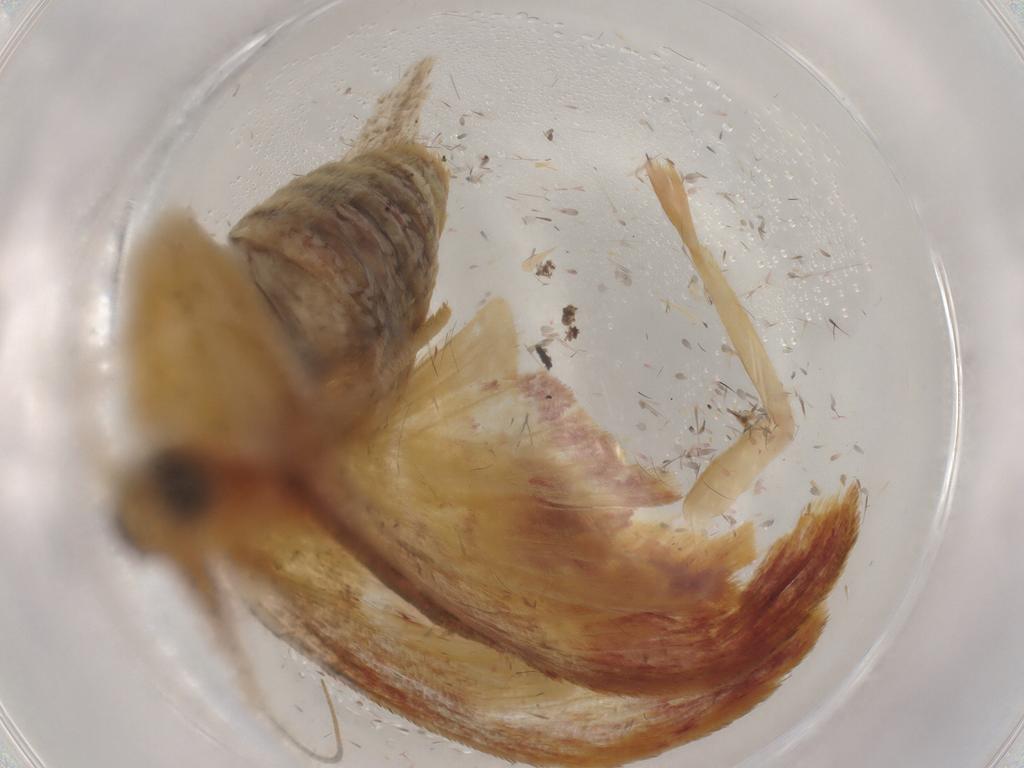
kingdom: Animalia
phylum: Arthropoda
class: Insecta
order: Lepidoptera
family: Crambidae
